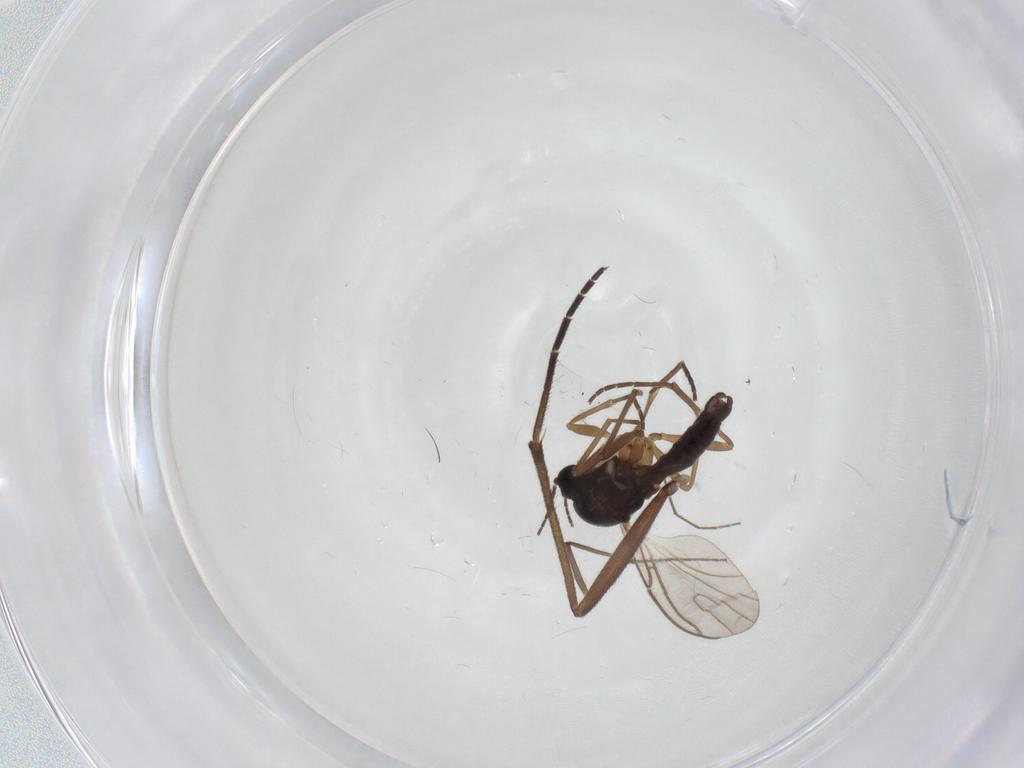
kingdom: Animalia
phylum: Arthropoda
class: Insecta
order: Diptera
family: Sciaridae
